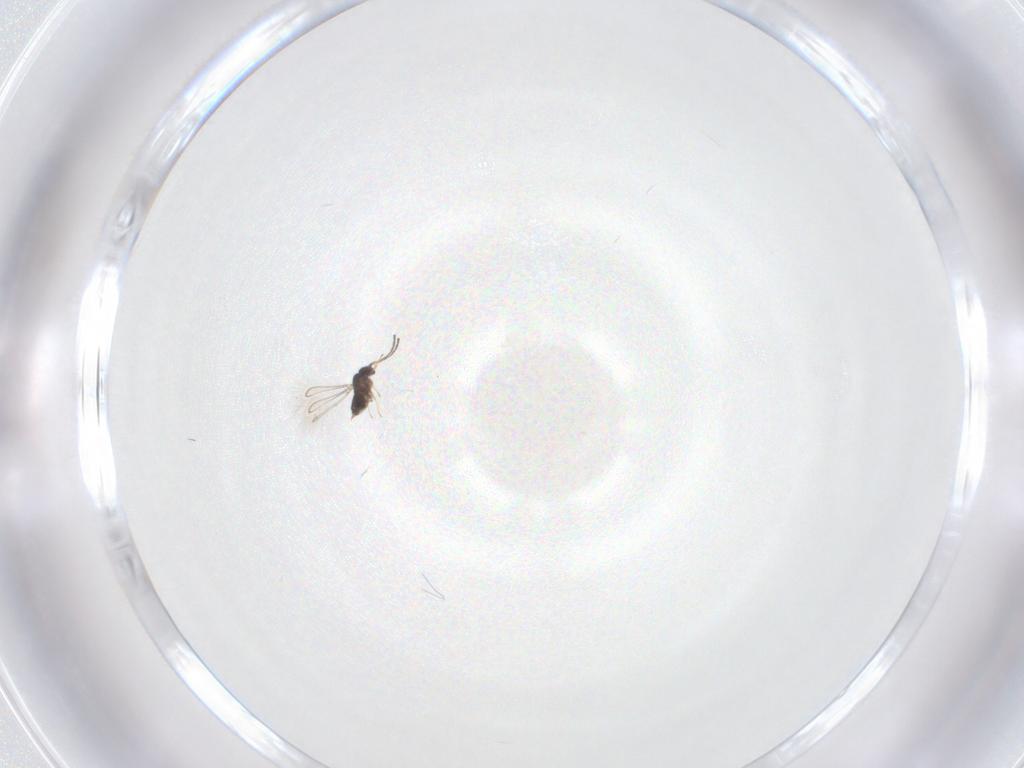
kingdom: Animalia
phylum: Arthropoda
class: Insecta
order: Hymenoptera
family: Platygastridae
